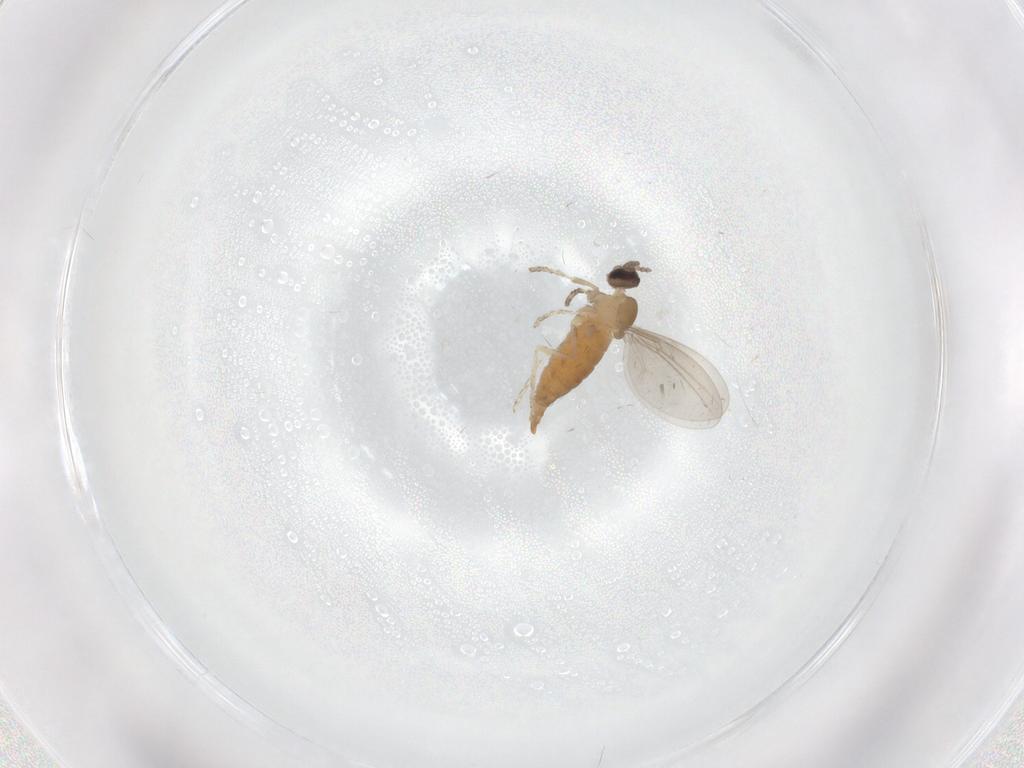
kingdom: Animalia
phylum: Arthropoda
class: Insecta
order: Diptera
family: Cecidomyiidae
